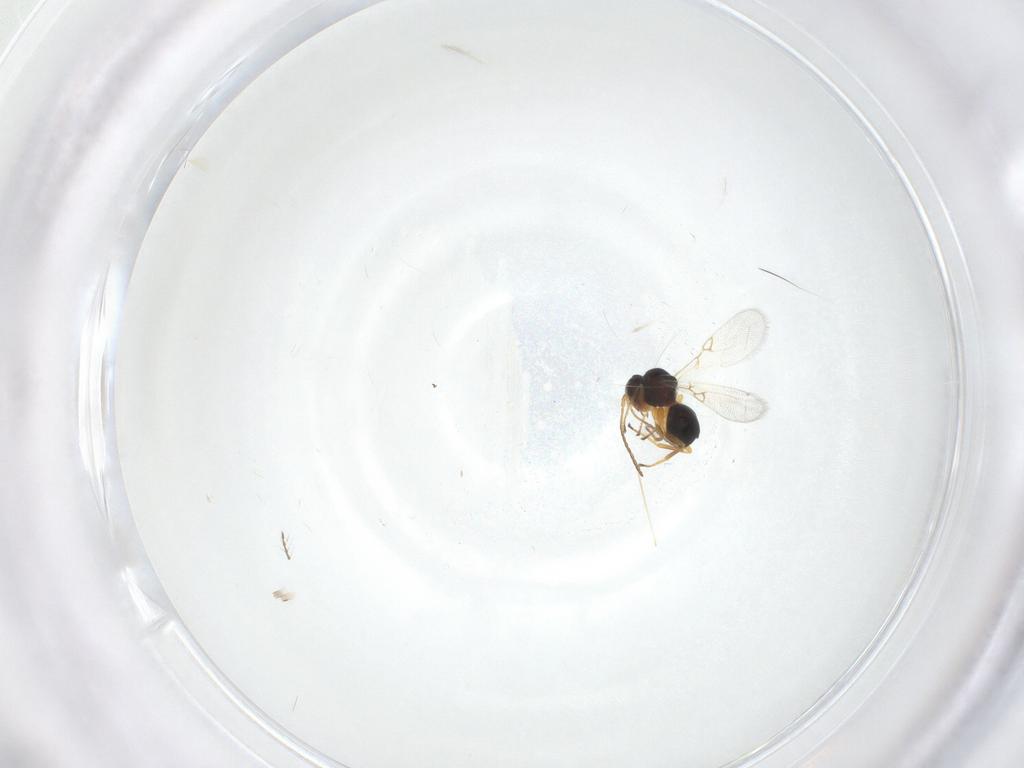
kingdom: Animalia
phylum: Arthropoda
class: Insecta
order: Hymenoptera
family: Figitidae
